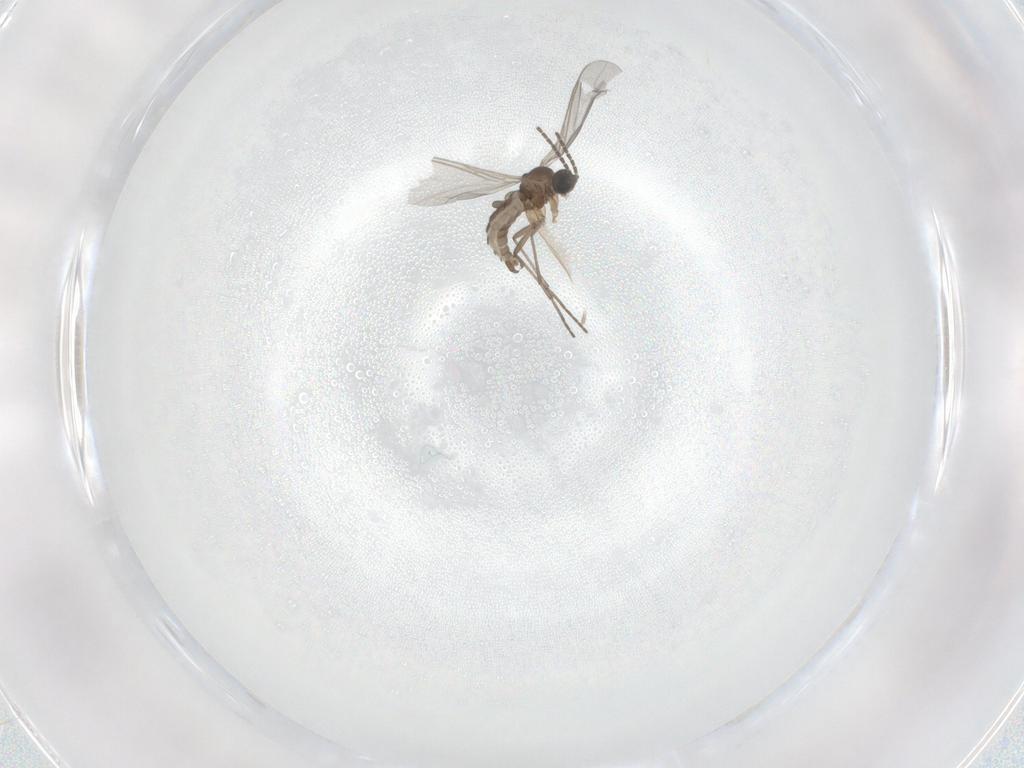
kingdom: Animalia
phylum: Arthropoda
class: Insecta
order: Diptera
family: Sciaridae
